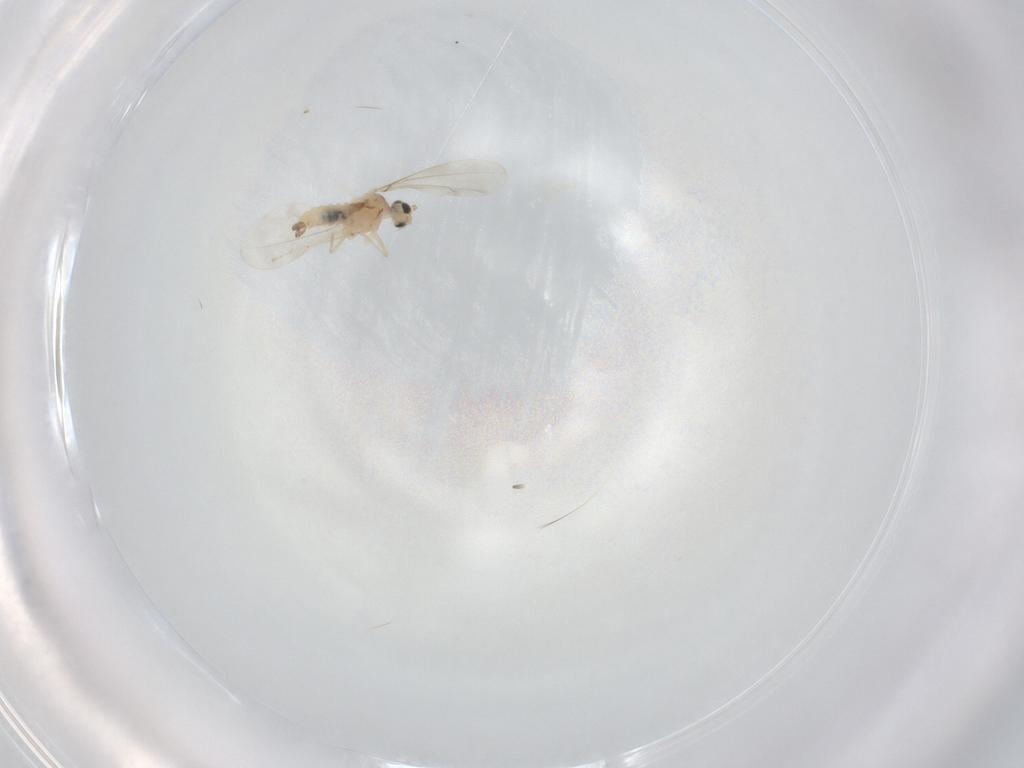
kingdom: Animalia
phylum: Arthropoda
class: Insecta
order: Diptera
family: Cecidomyiidae
